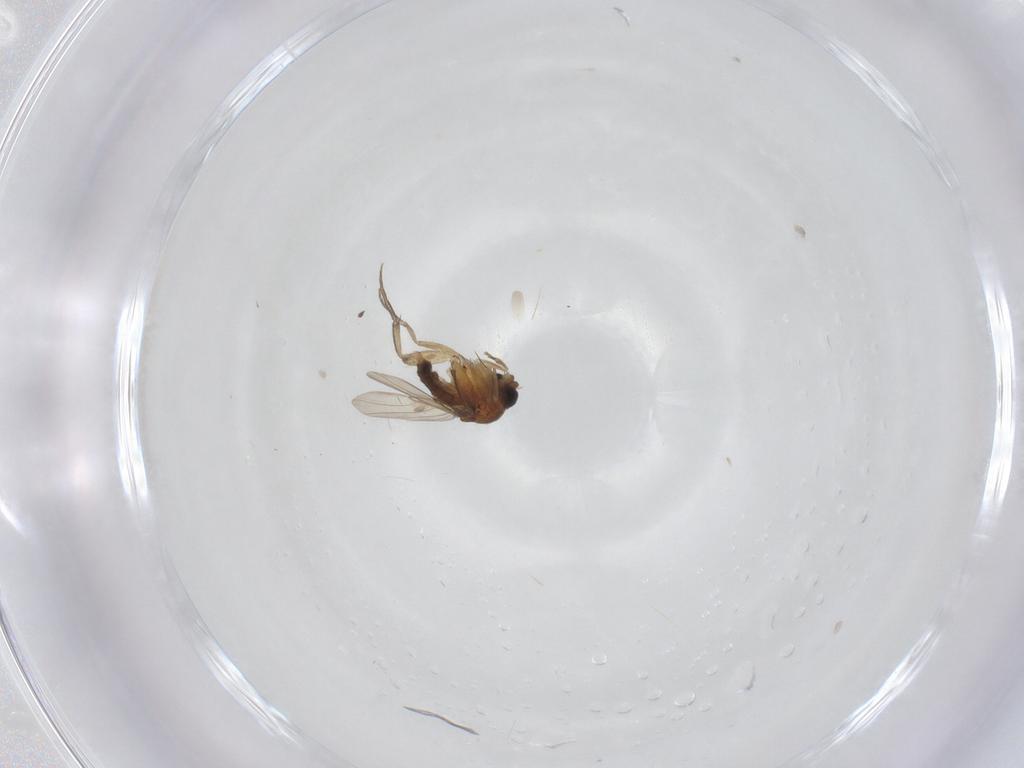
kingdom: Animalia
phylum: Arthropoda
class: Insecta
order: Diptera
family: Phoridae
